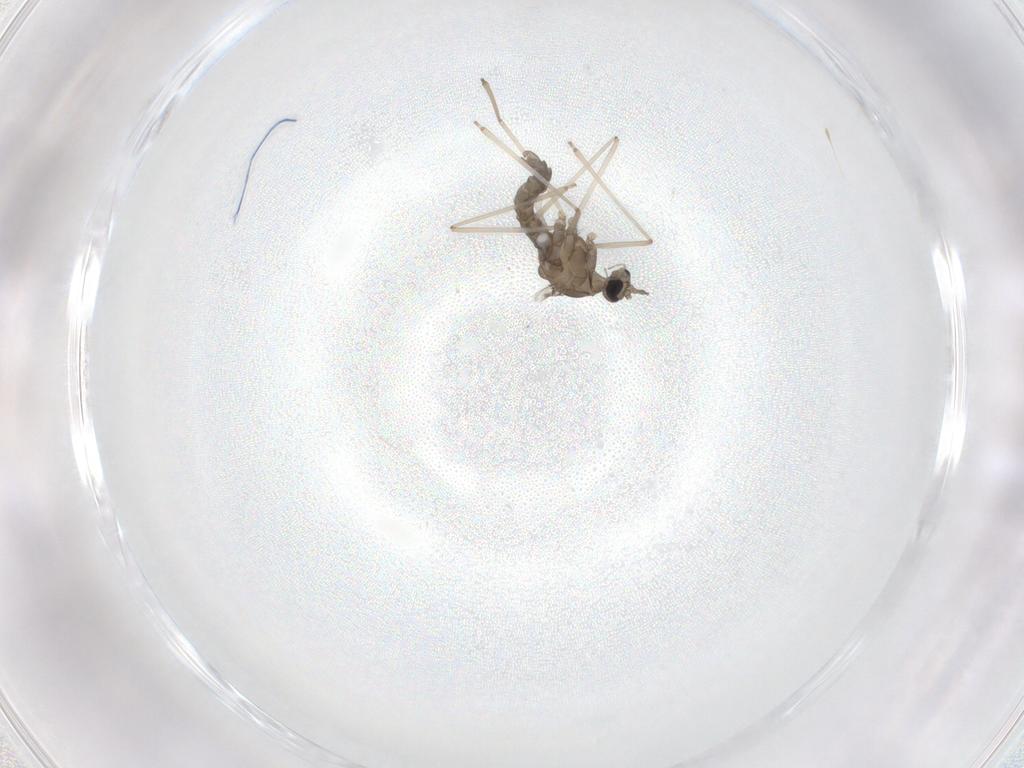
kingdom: Animalia
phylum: Arthropoda
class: Insecta
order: Diptera
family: Cecidomyiidae
